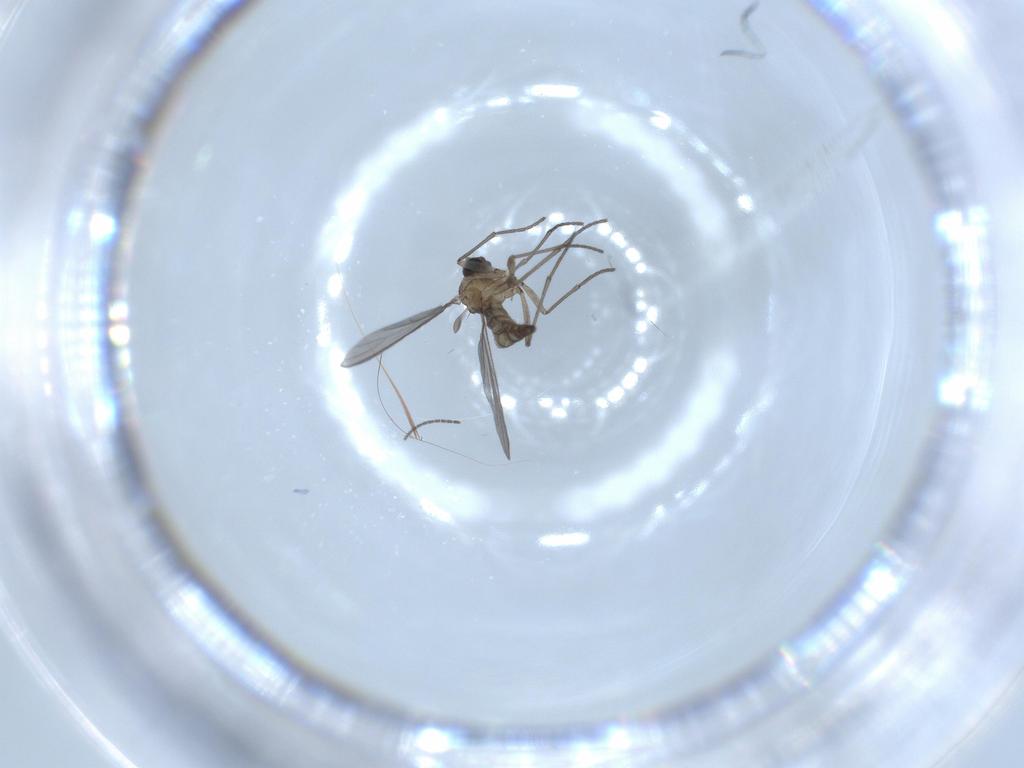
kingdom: Animalia
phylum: Arthropoda
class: Insecta
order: Diptera
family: Sciaridae
